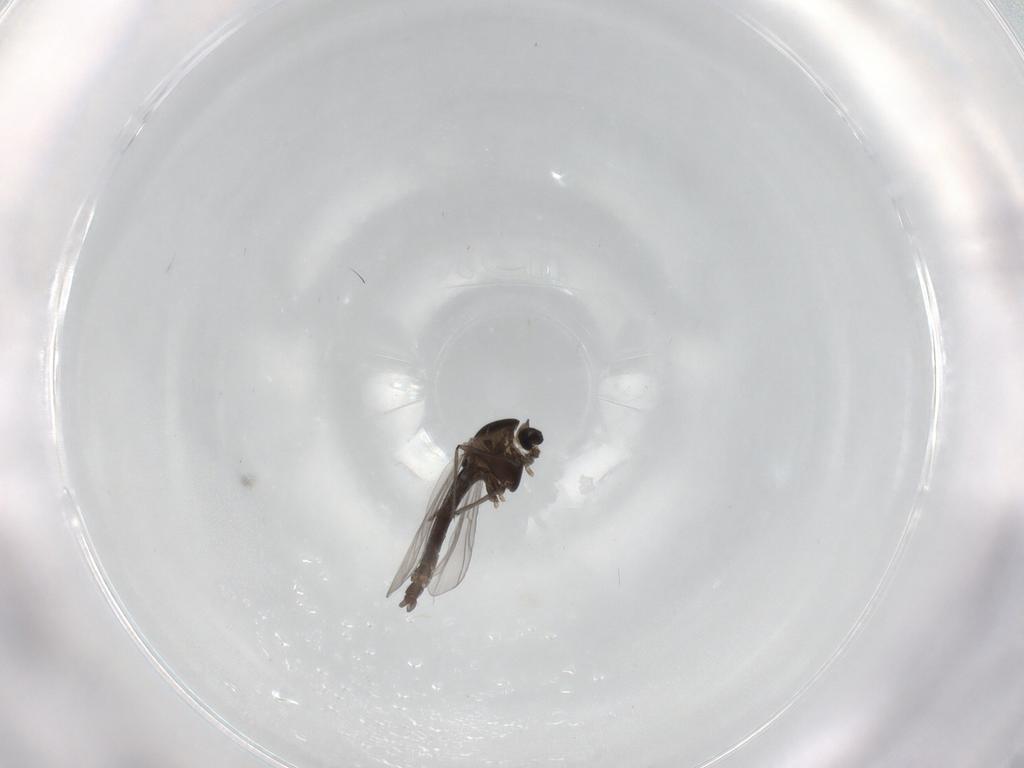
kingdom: Animalia
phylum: Arthropoda
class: Insecta
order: Diptera
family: Chironomidae
